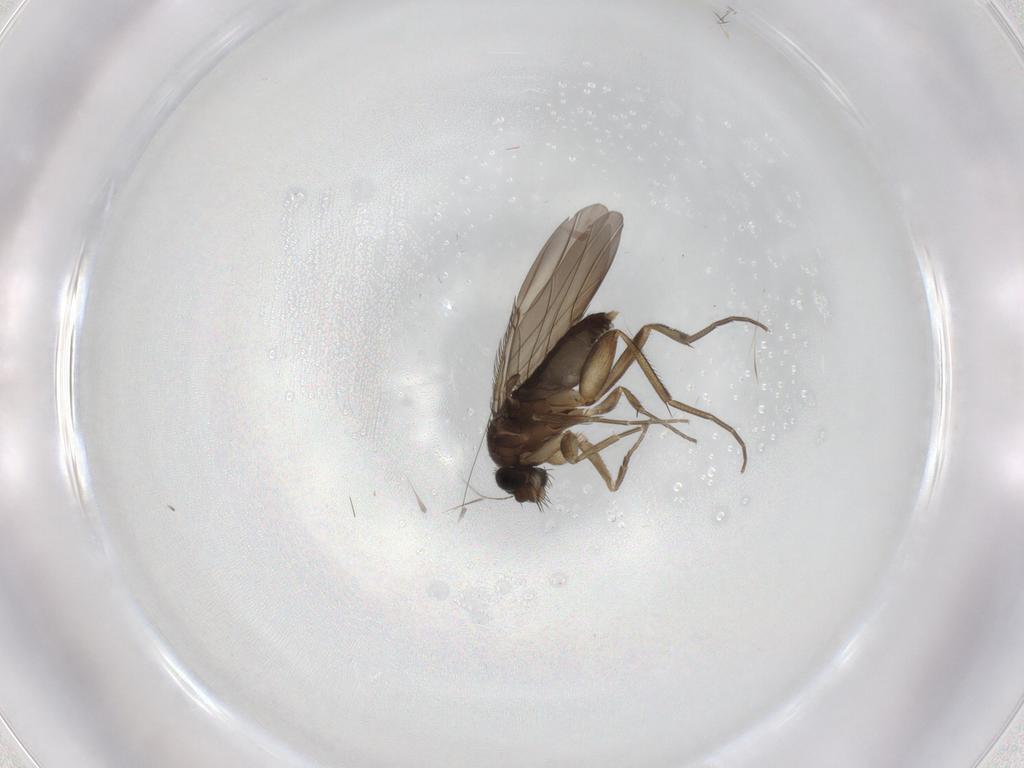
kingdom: Animalia
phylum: Arthropoda
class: Insecta
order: Diptera
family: Phoridae
